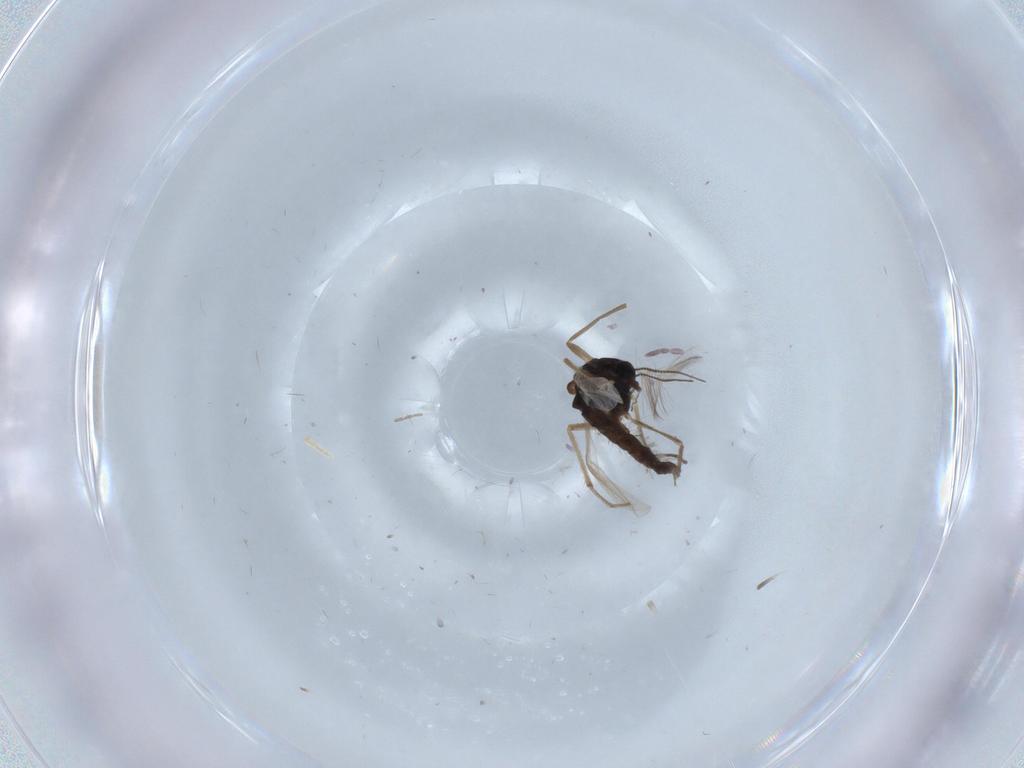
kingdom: Animalia
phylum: Arthropoda
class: Insecta
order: Diptera
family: Chironomidae
